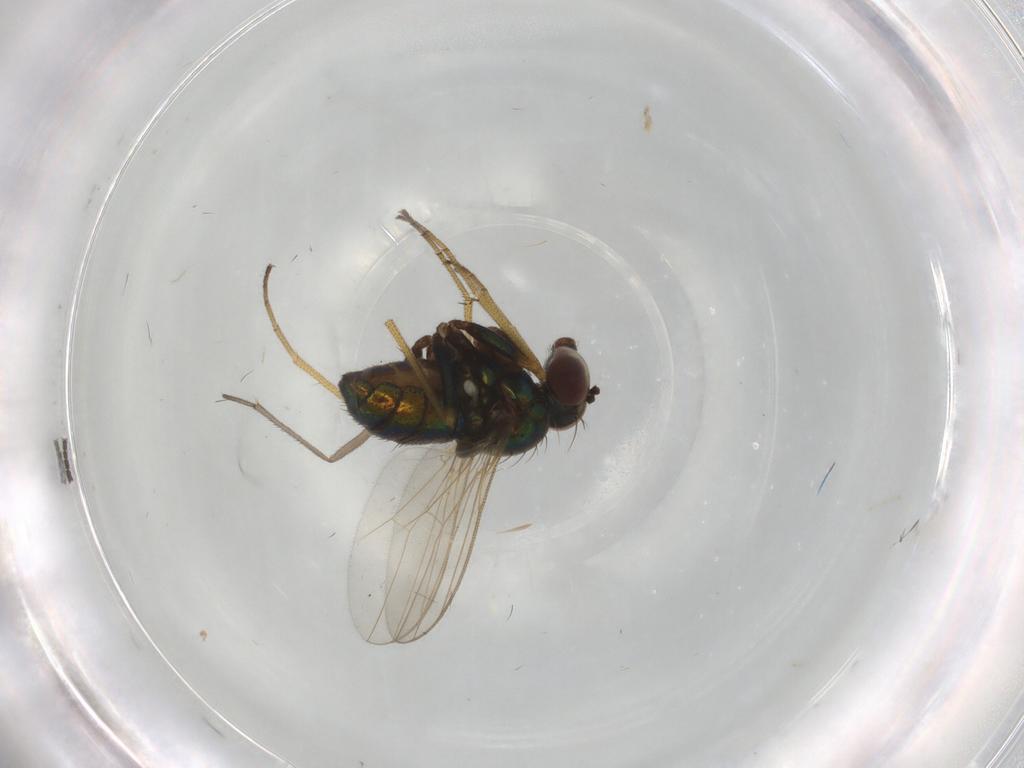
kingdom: Animalia
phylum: Arthropoda
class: Insecta
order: Diptera
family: Dolichopodidae
